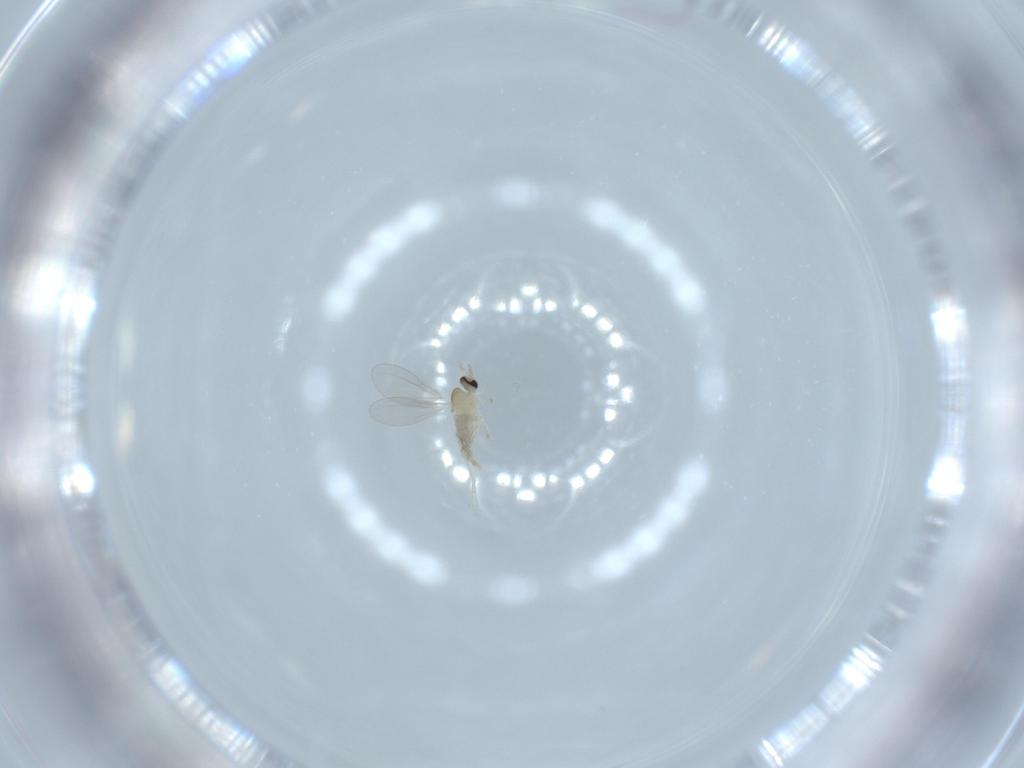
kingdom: Animalia
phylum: Arthropoda
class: Insecta
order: Diptera
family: Cecidomyiidae
